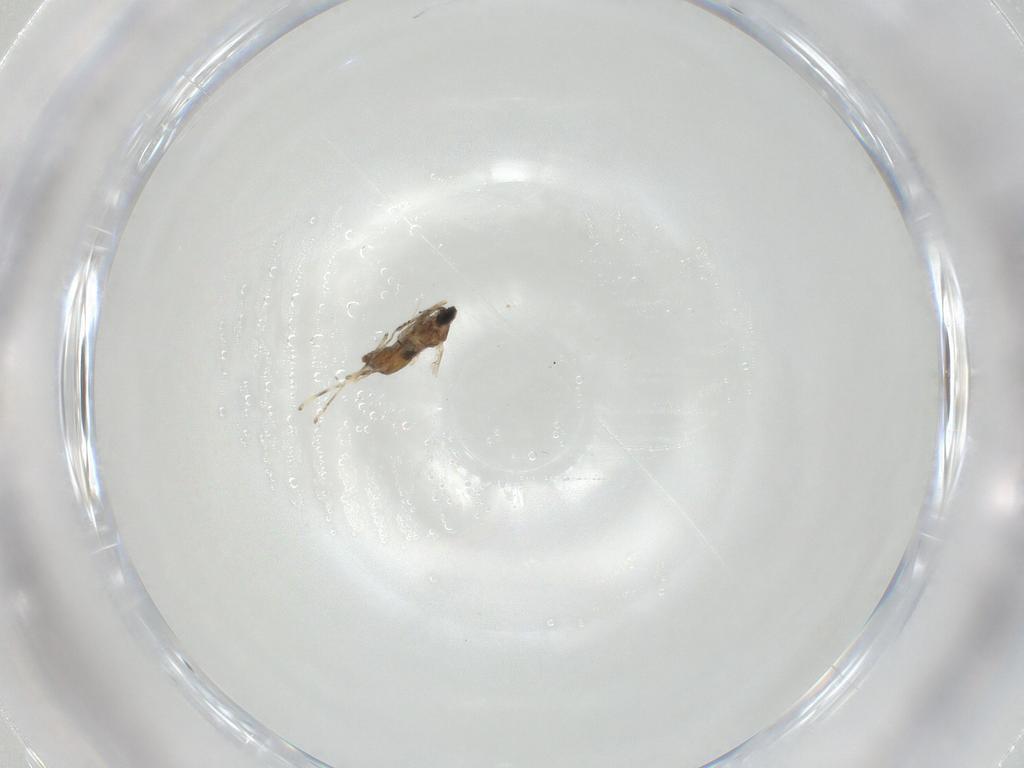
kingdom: Animalia
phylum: Arthropoda
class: Insecta
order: Diptera
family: Cecidomyiidae
